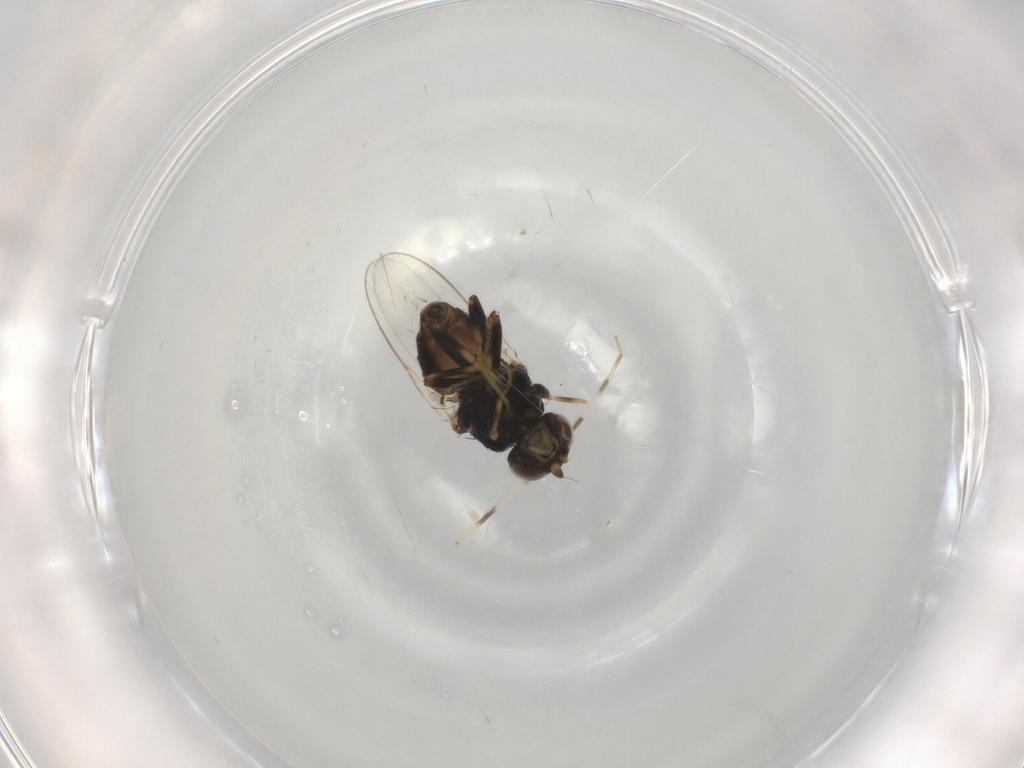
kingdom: Animalia
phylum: Arthropoda
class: Insecta
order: Diptera
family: Chloropidae
